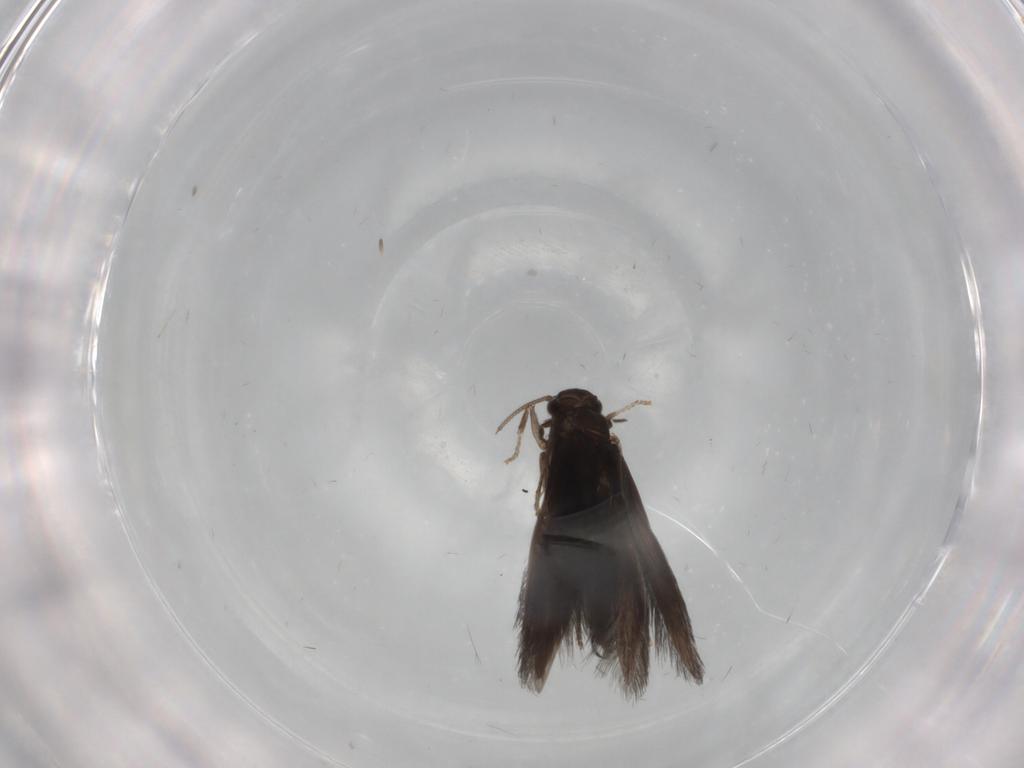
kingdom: Animalia
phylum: Arthropoda
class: Insecta
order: Trichoptera
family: Hydroptilidae
